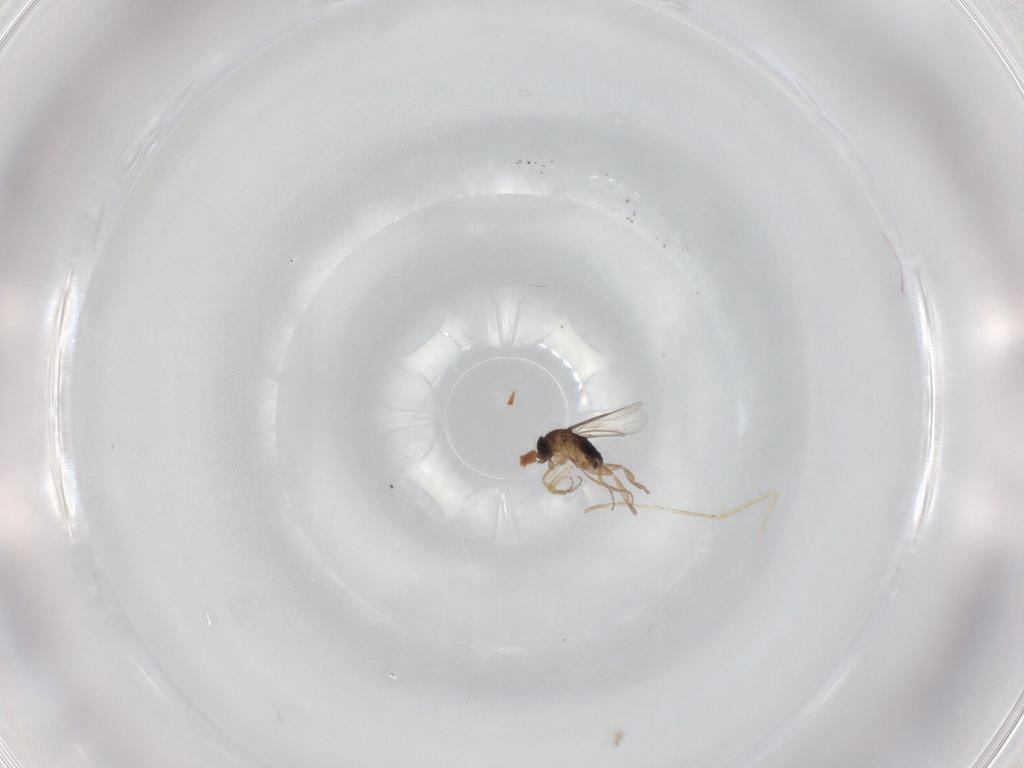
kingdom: Animalia
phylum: Arthropoda
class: Insecta
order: Diptera
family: Cecidomyiidae
